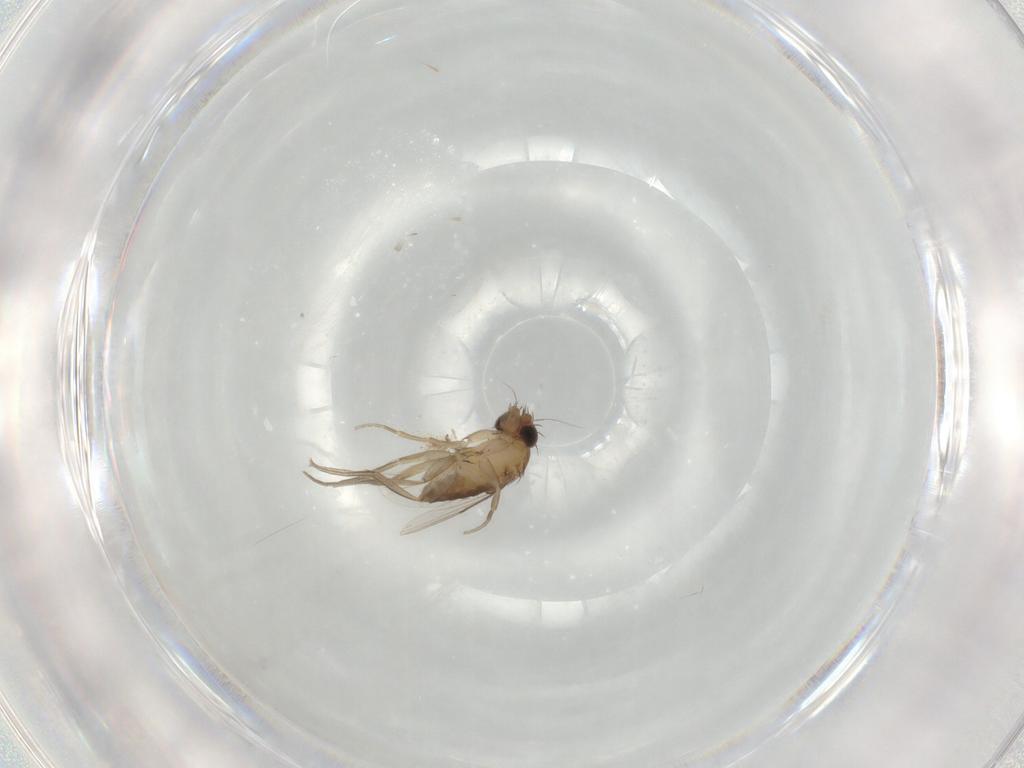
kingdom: Animalia
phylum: Arthropoda
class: Insecta
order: Diptera
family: Phoridae
